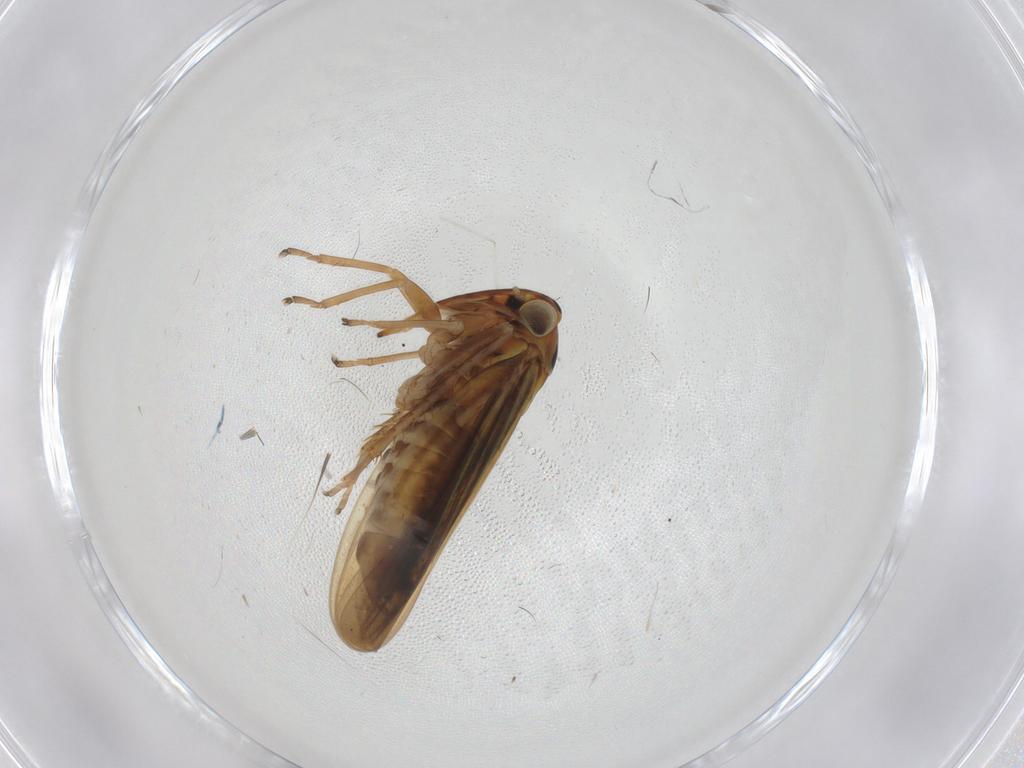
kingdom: Animalia
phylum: Arthropoda
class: Insecta
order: Hemiptera
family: Cicadellidae
